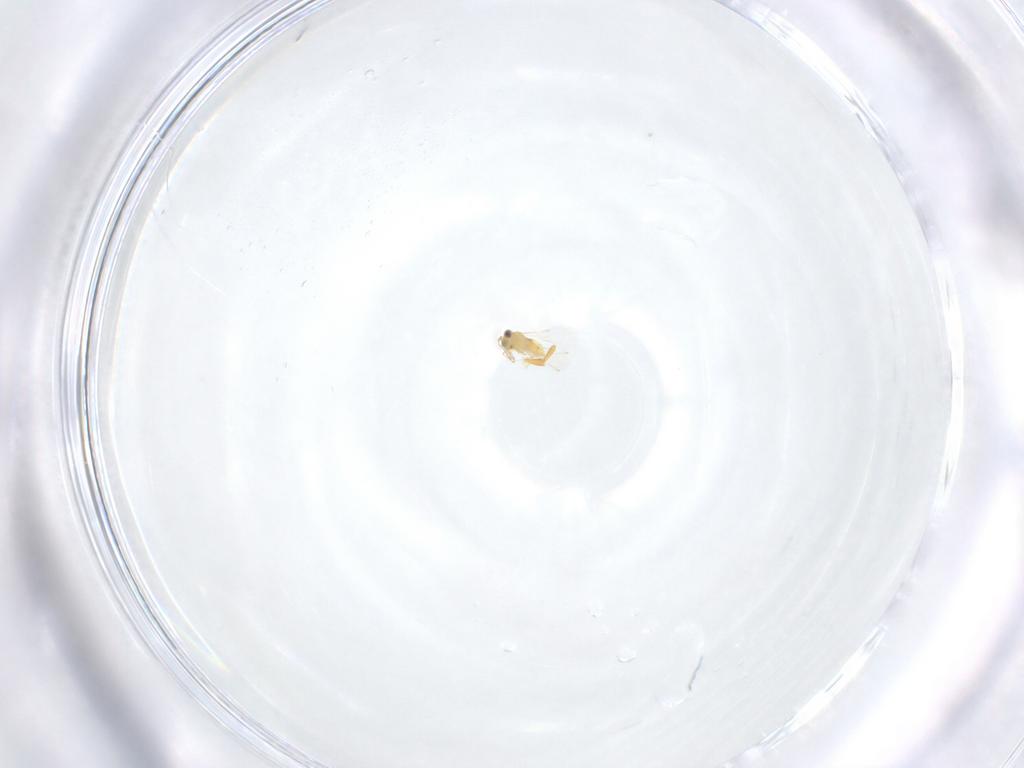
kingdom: Animalia
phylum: Arthropoda
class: Insecta
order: Hymenoptera
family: Crabronidae
